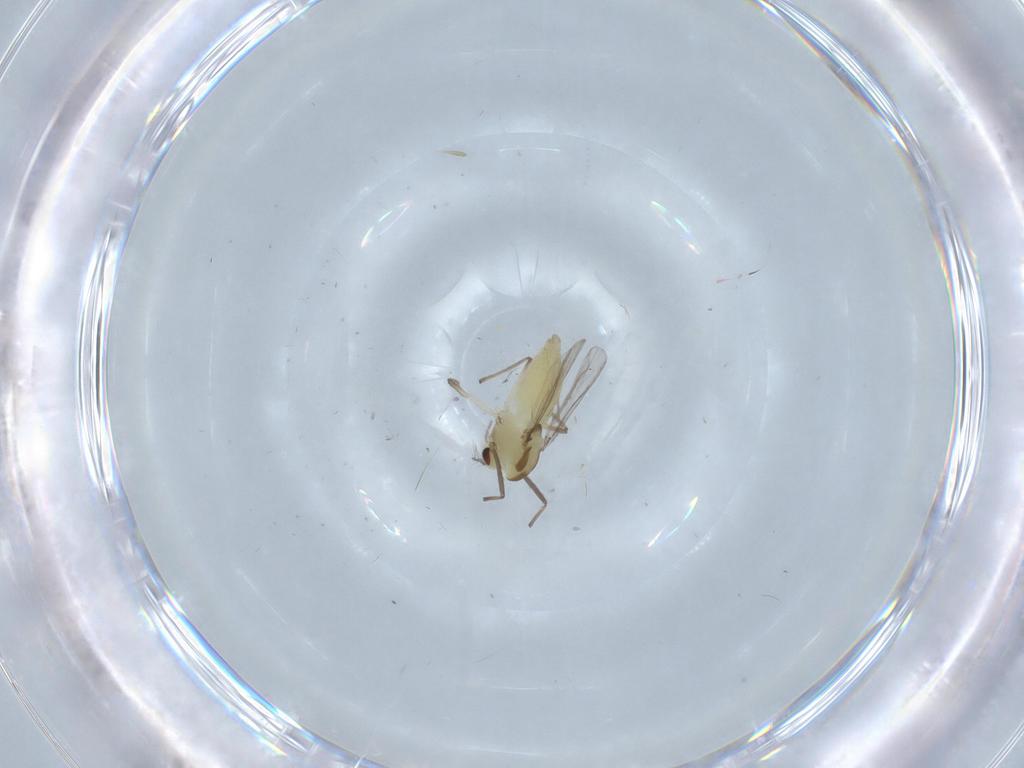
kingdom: Animalia
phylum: Arthropoda
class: Insecta
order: Diptera
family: Chironomidae
